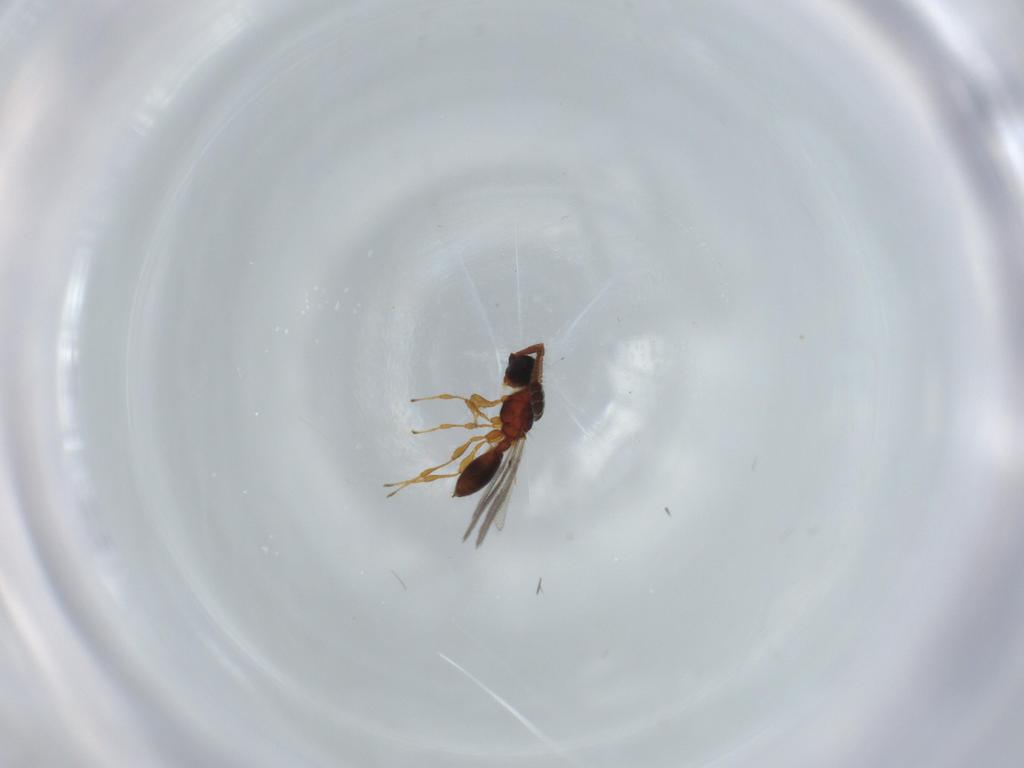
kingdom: Animalia
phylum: Arthropoda
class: Insecta
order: Hymenoptera
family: Diapriidae
